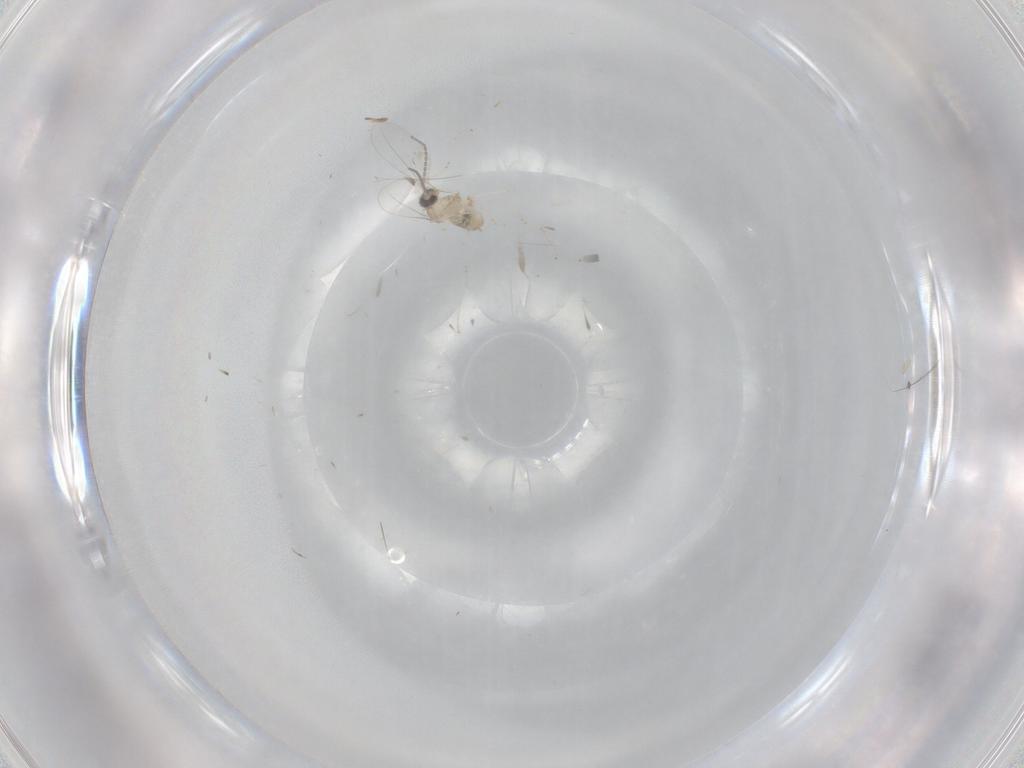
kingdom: Animalia
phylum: Arthropoda
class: Insecta
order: Diptera
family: Cecidomyiidae
